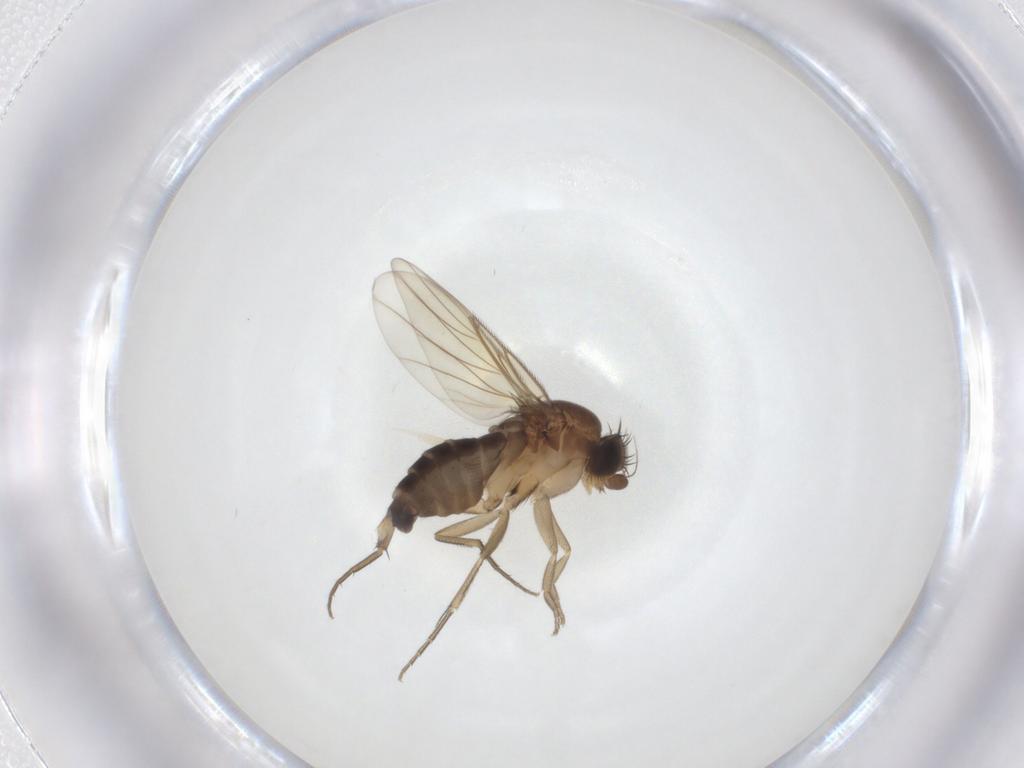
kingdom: Animalia
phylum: Arthropoda
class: Insecta
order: Diptera
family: Phoridae
